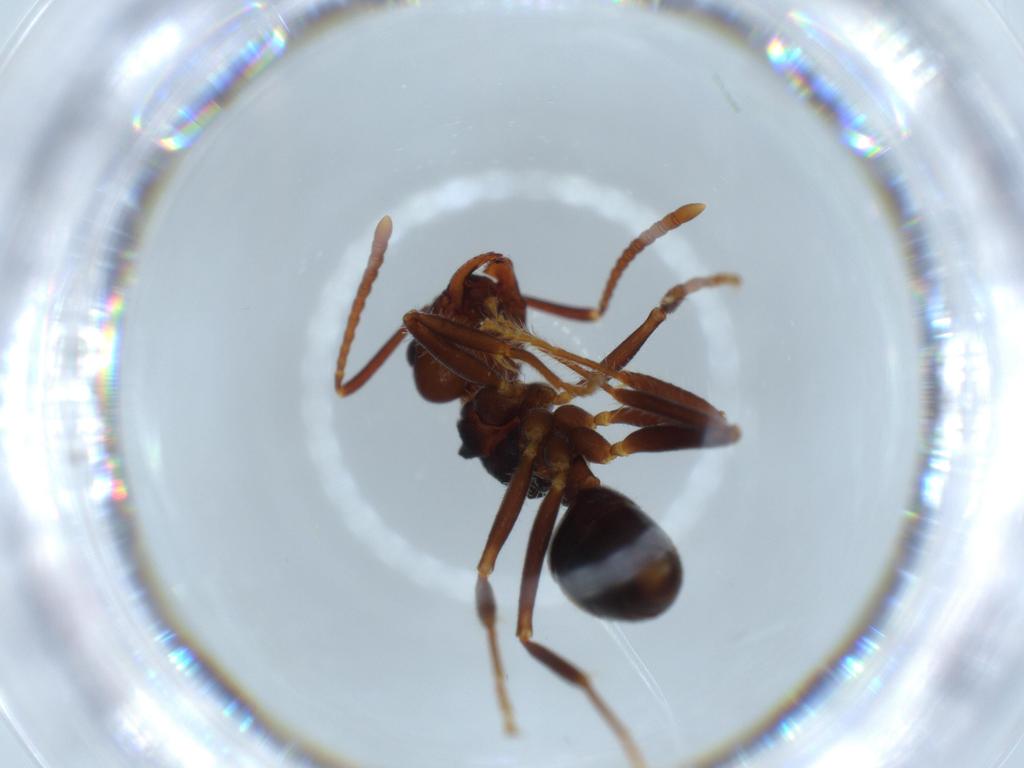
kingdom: Animalia
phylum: Arthropoda
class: Insecta
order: Hymenoptera
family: Formicidae
